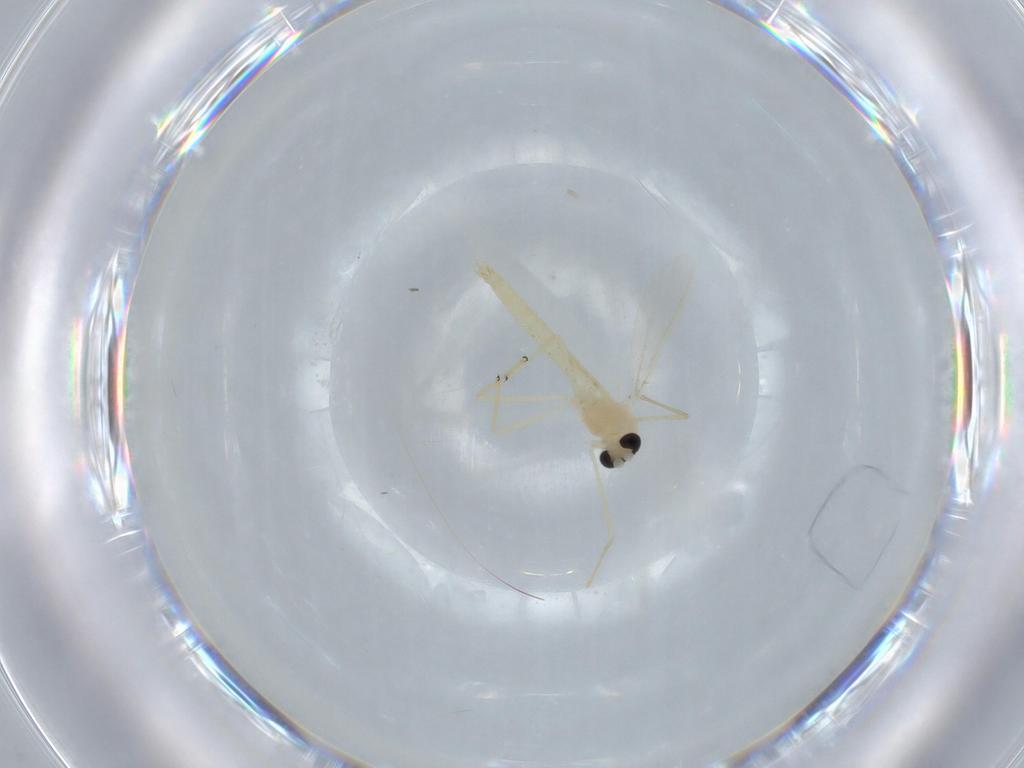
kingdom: Animalia
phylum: Arthropoda
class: Insecta
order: Diptera
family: Chironomidae
